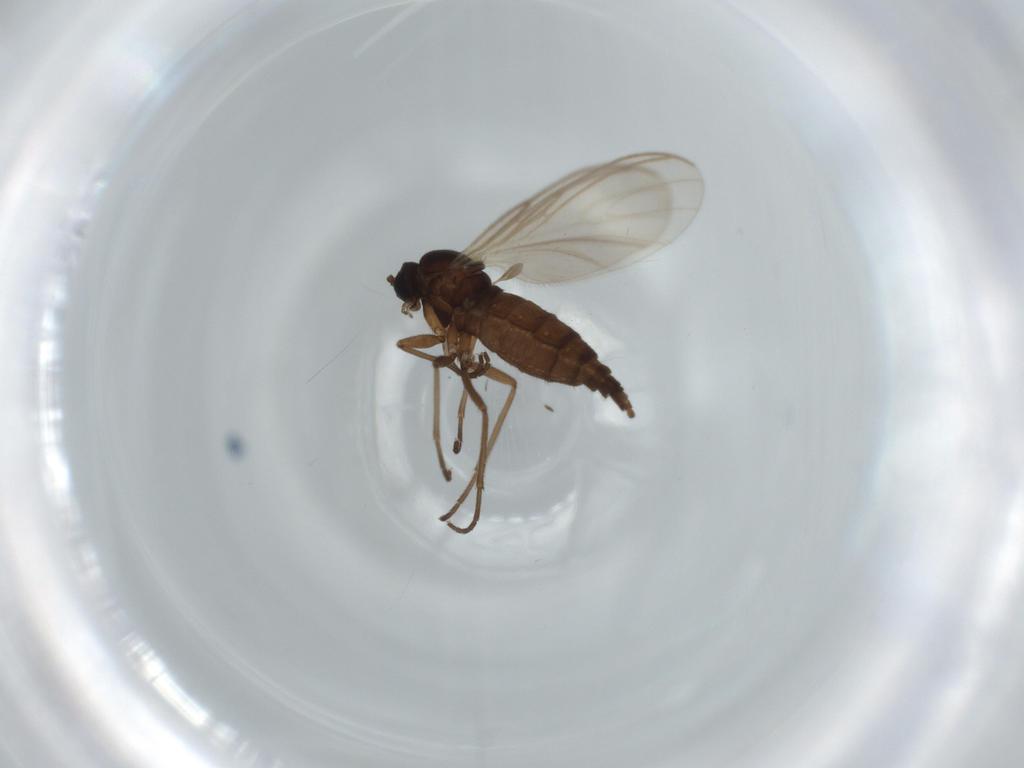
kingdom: Animalia
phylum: Arthropoda
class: Insecta
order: Diptera
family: Sciaridae
